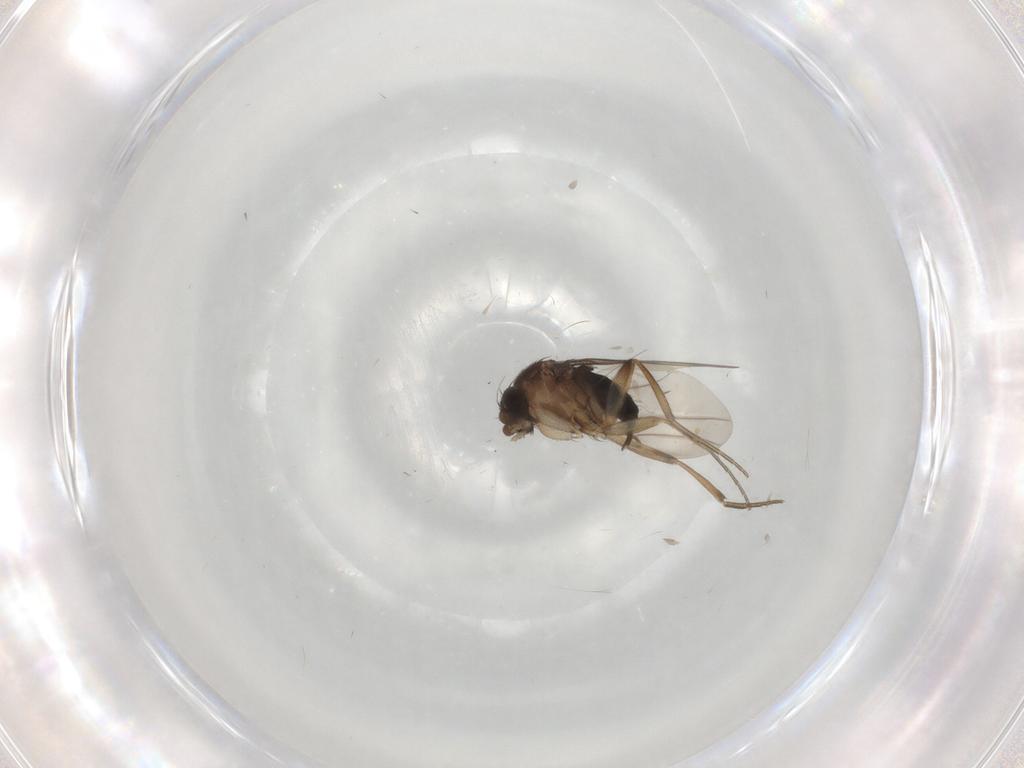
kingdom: Animalia
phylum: Arthropoda
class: Insecta
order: Diptera
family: Phoridae
